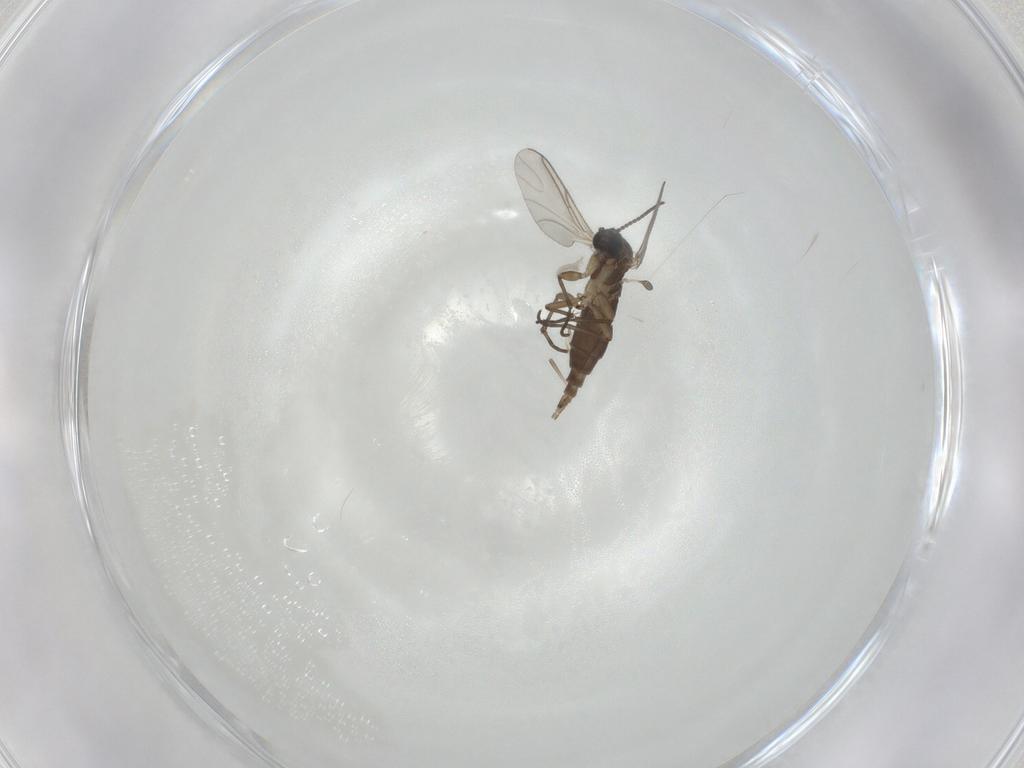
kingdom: Animalia
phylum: Arthropoda
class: Insecta
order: Diptera
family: Sciaridae
